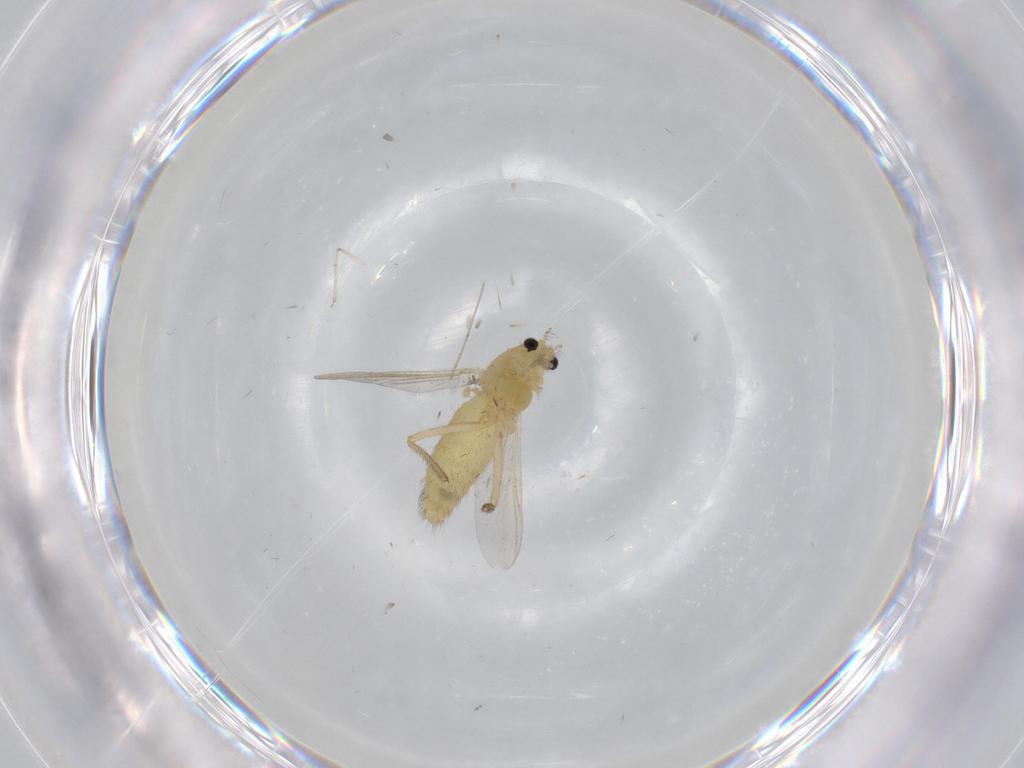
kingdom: Animalia
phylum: Arthropoda
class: Insecta
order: Diptera
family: Chironomidae
